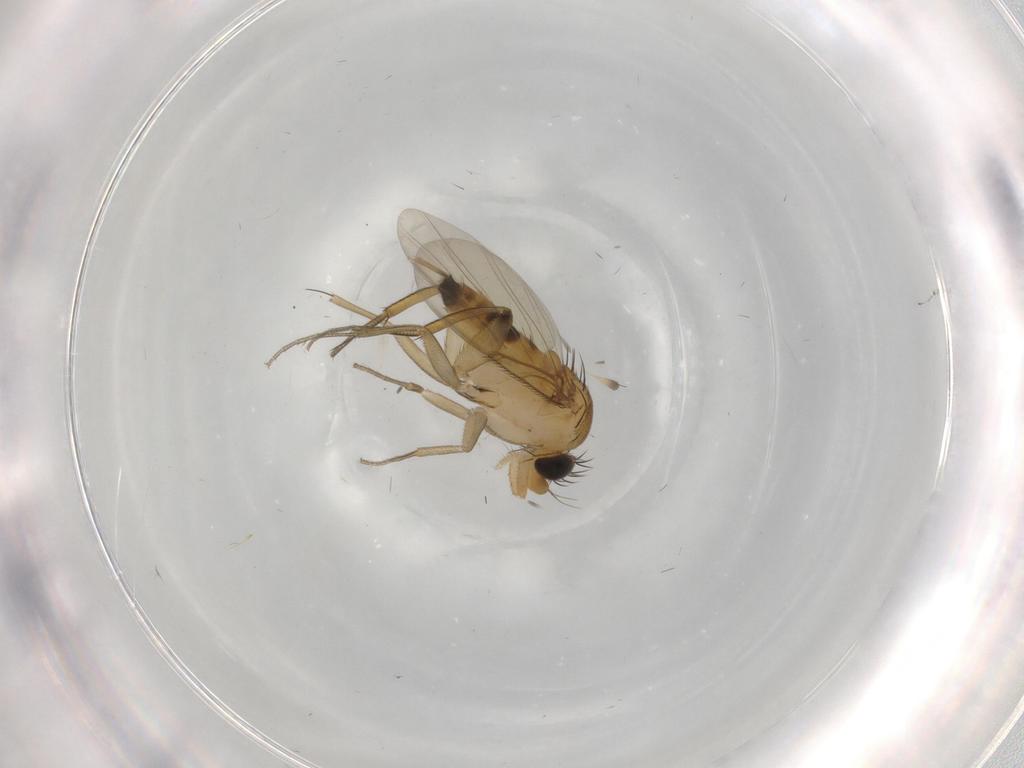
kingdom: Animalia
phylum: Arthropoda
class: Insecta
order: Diptera
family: Phoridae
